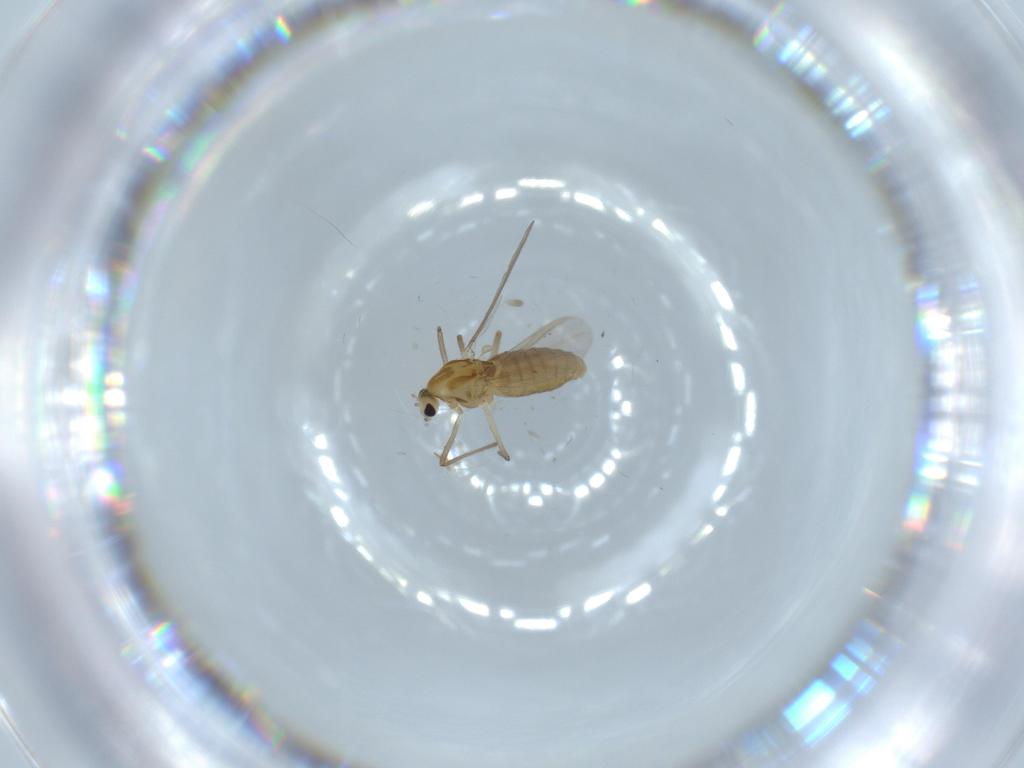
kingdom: Animalia
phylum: Arthropoda
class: Insecta
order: Diptera
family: Chironomidae
